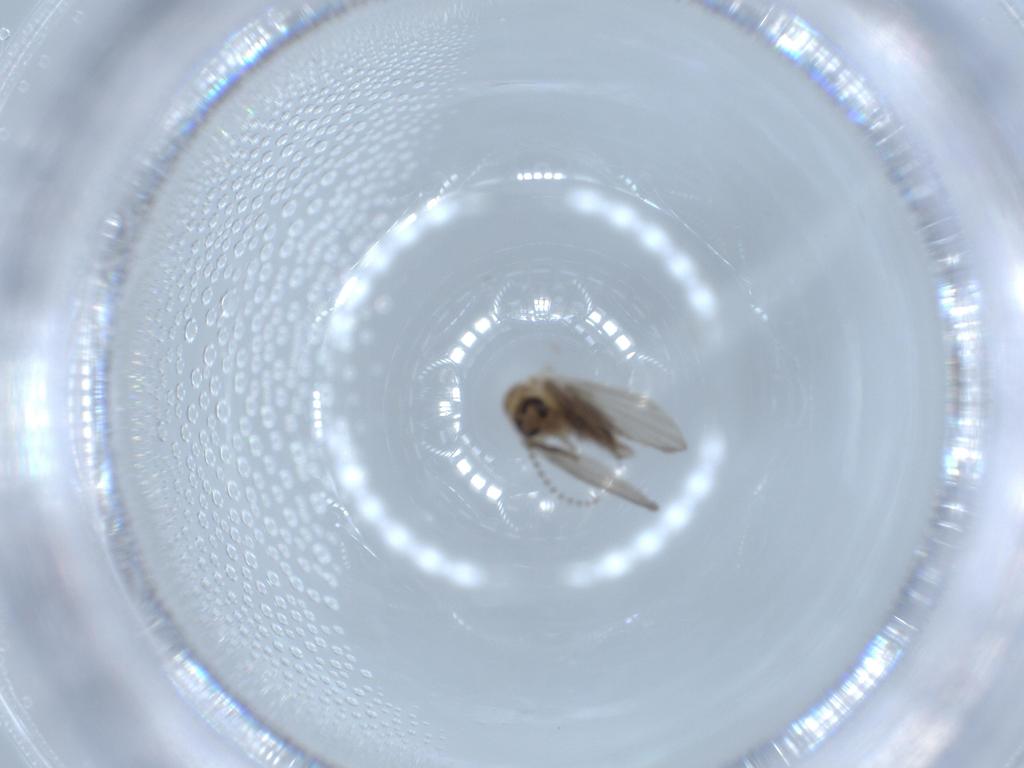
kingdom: Animalia
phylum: Arthropoda
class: Insecta
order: Diptera
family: Psychodidae
